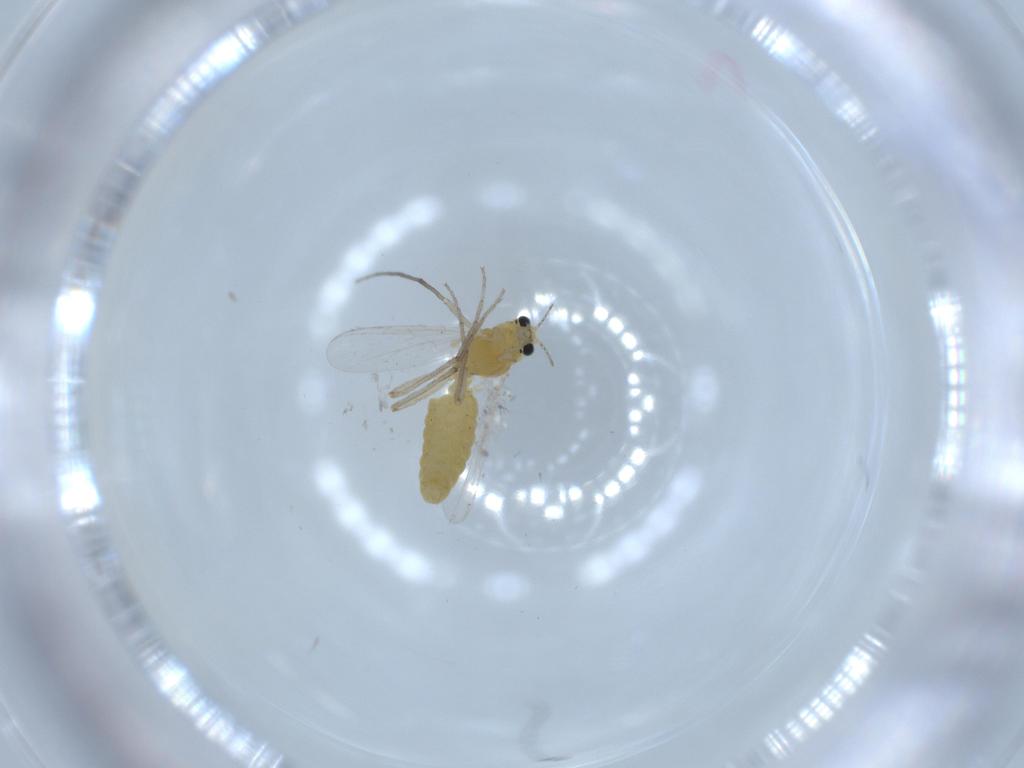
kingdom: Animalia
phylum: Arthropoda
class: Insecta
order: Diptera
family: Chironomidae
